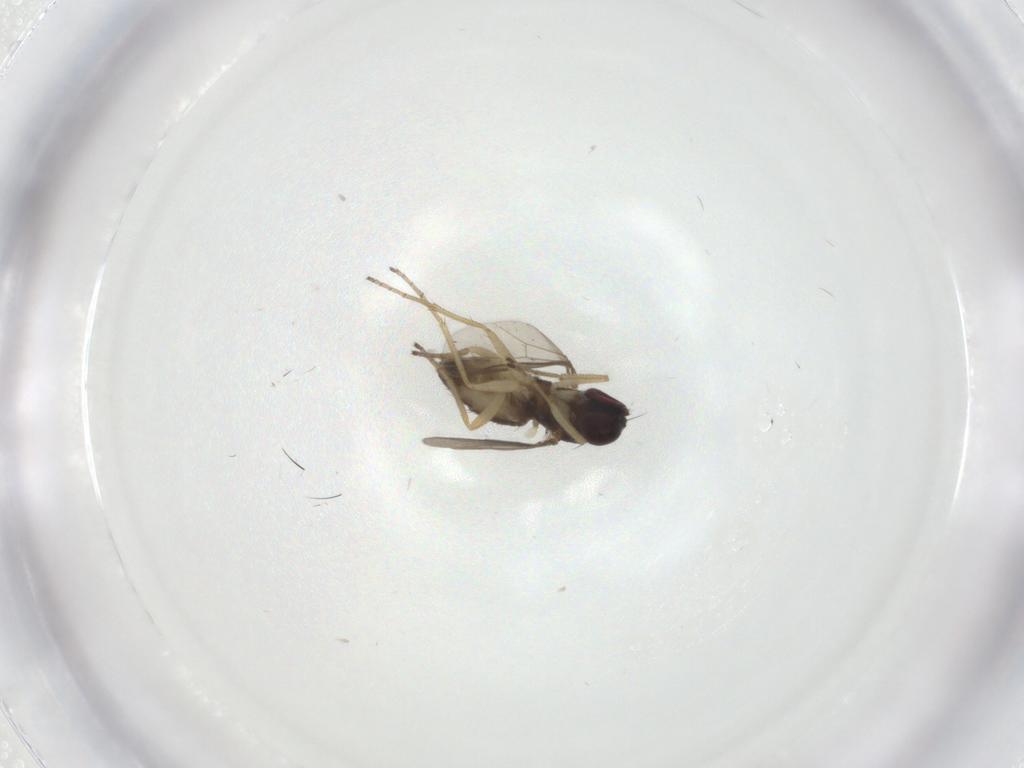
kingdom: Animalia
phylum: Arthropoda
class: Insecta
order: Diptera
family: Dolichopodidae
